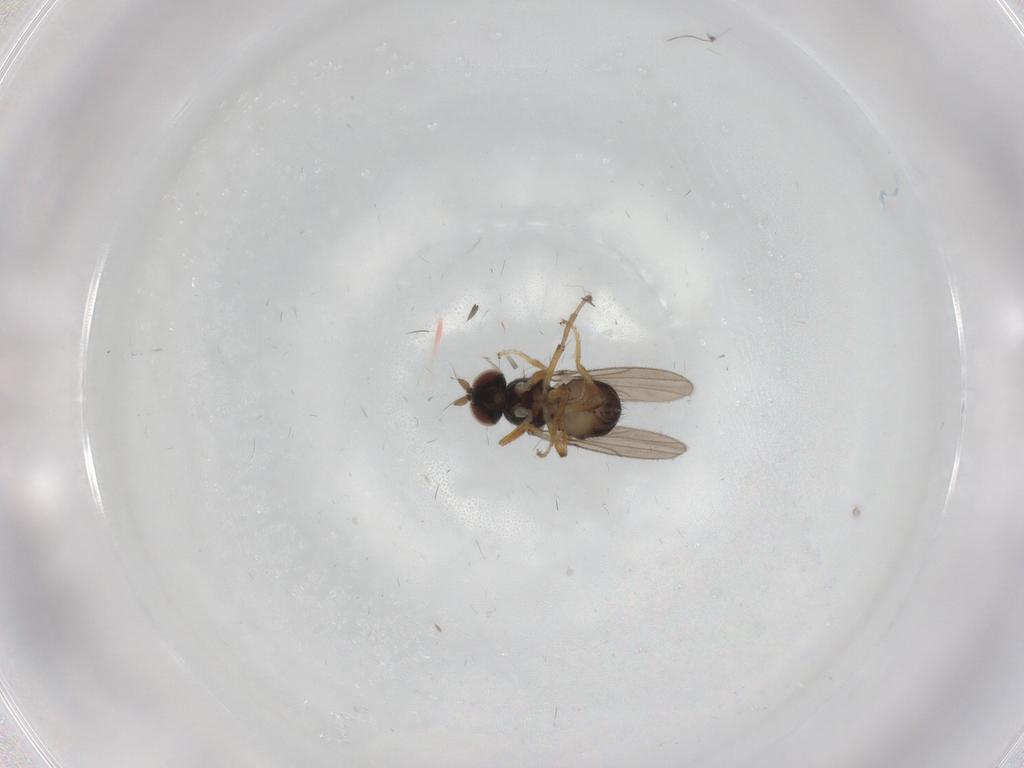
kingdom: Animalia
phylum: Arthropoda
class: Insecta
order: Diptera
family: Ephydridae
